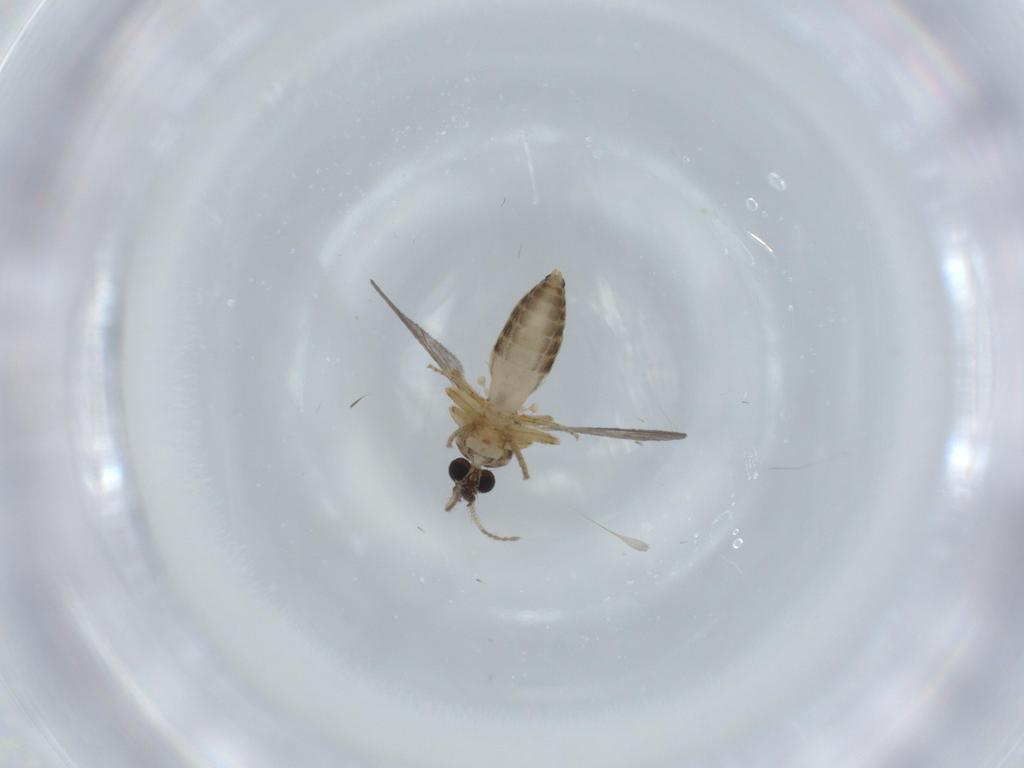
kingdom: Animalia
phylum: Arthropoda
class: Insecta
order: Diptera
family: Ceratopogonidae
